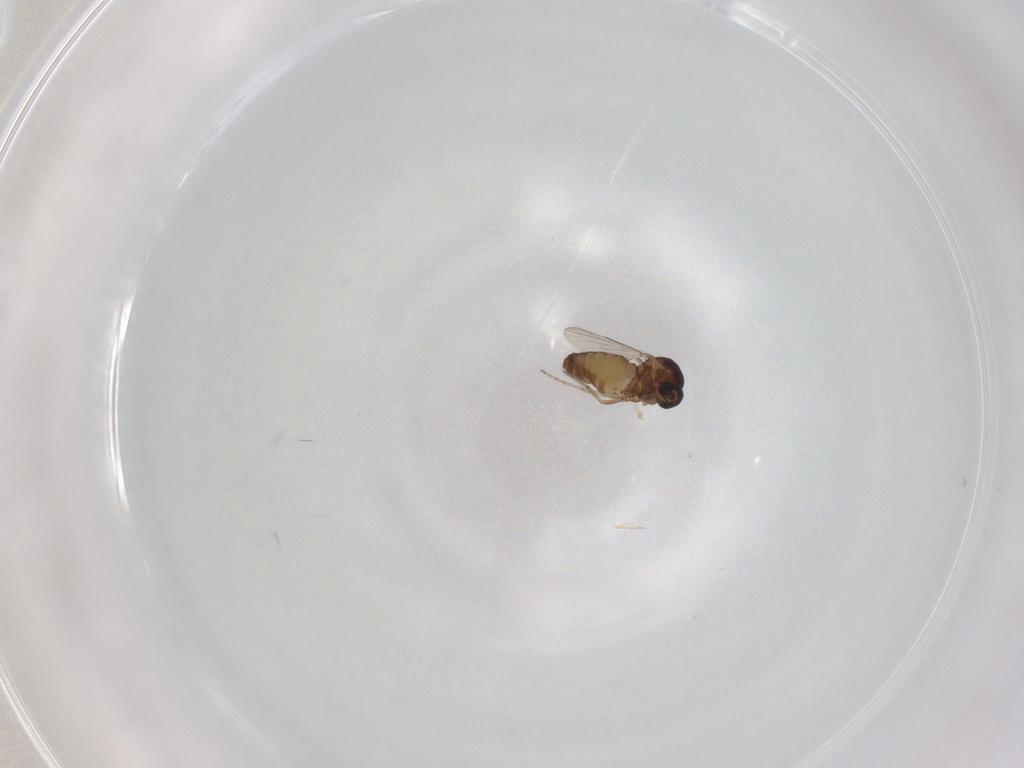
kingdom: Animalia
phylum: Arthropoda
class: Insecta
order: Diptera
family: Ceratopogonidae
